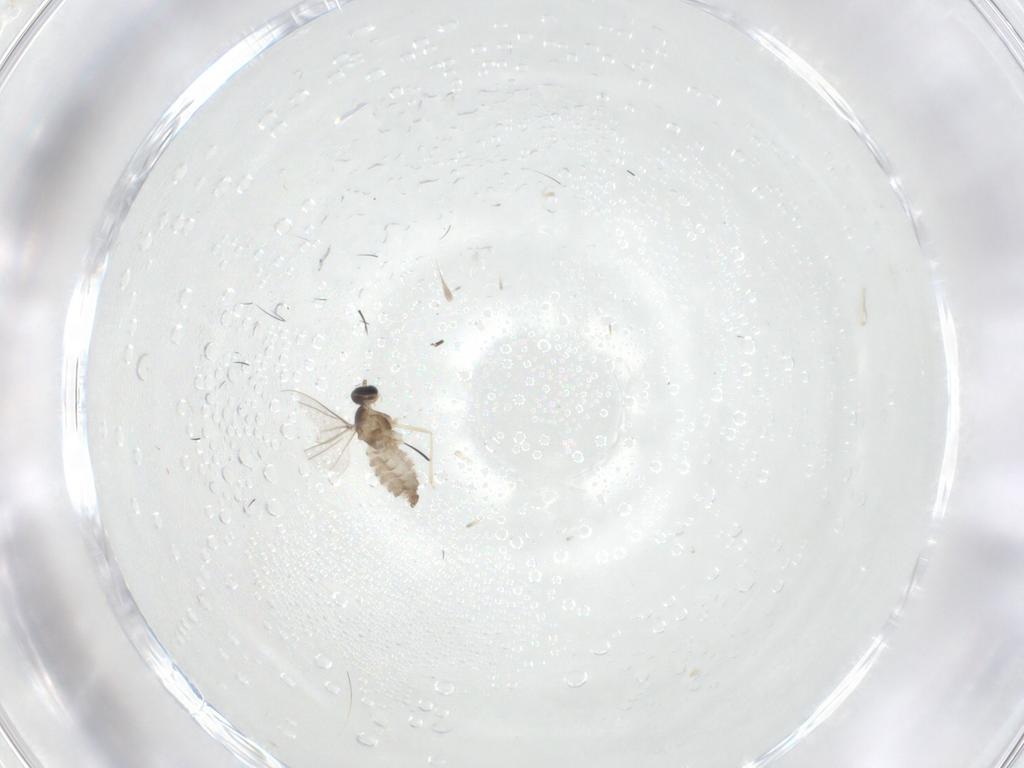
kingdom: Animalia
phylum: Arthropoda
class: Insecta
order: Diptera
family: Cecidomyiidae
